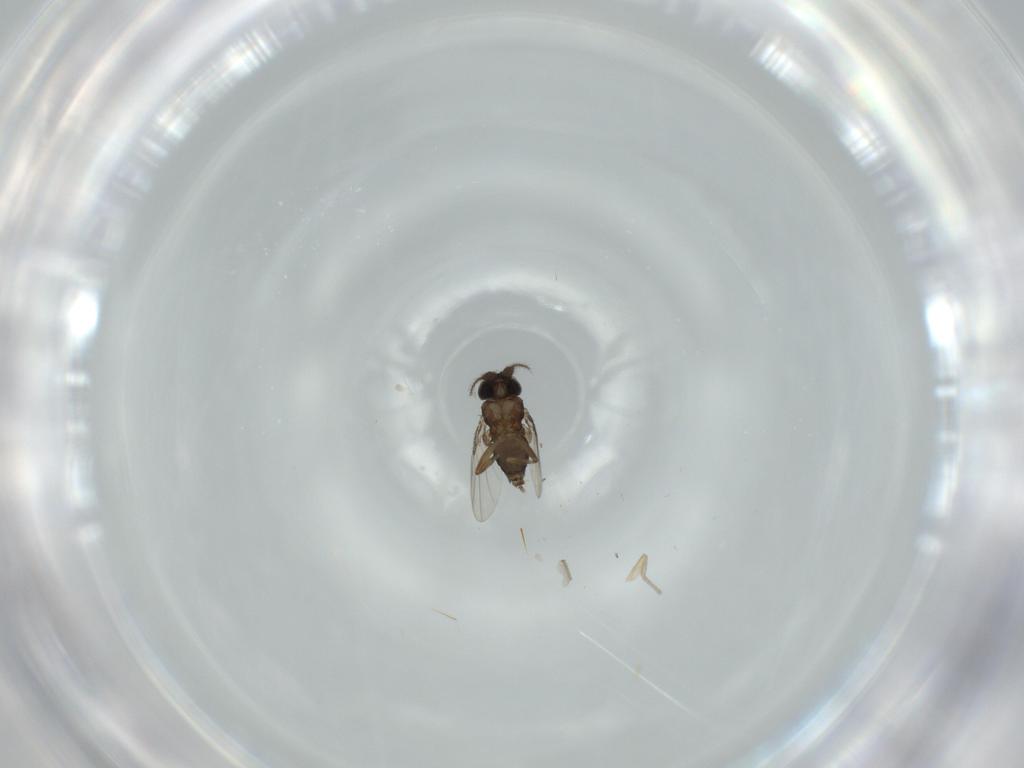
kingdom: Animalia
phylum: Arthropoda
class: Insecta
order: Diptera
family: Phoridae
